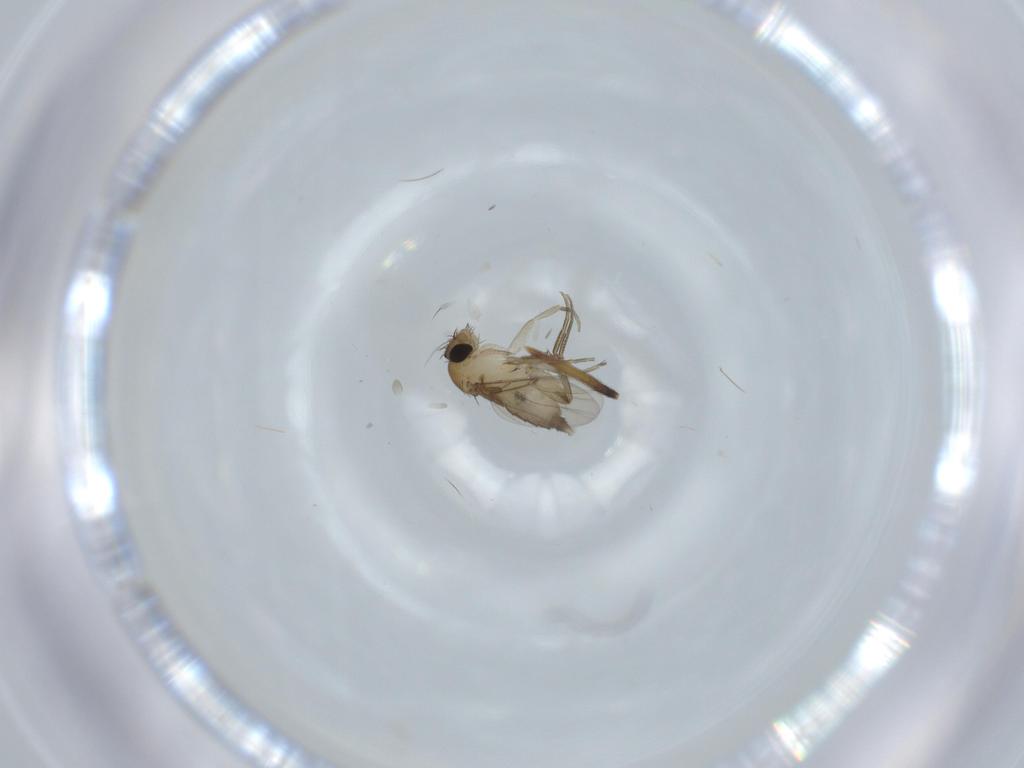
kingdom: Animalia
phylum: Arthropoda
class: Insecta
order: Diptera
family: Phoridae
